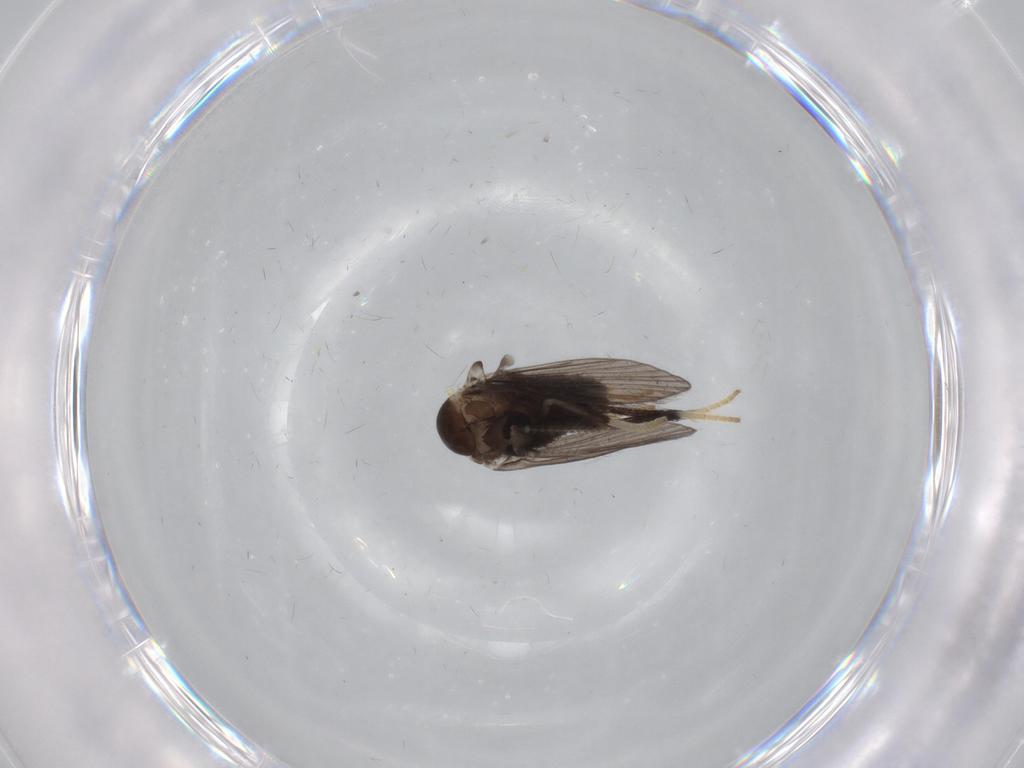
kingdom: Animalia
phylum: Arthropoda
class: Insecta
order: Diptera
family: Psychodidae
